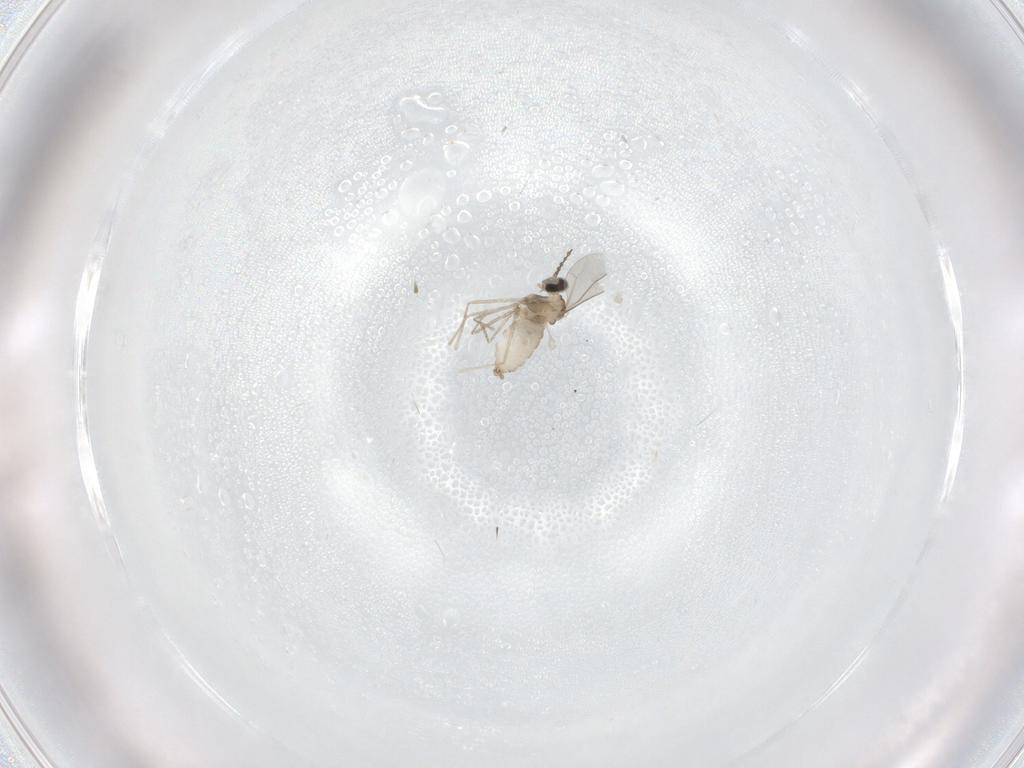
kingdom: Animalia
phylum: Arthropoda
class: Insecta
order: Diptera
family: Ceratopogonidae
